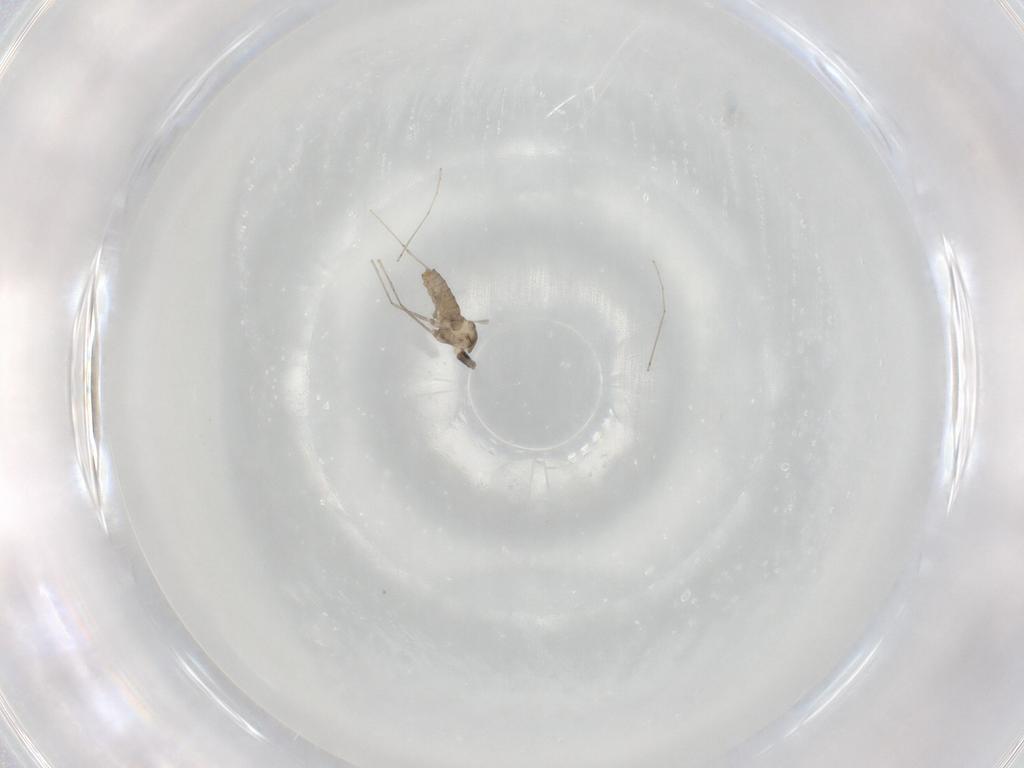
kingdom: Animalia
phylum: Arthropoda
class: Insecta
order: Diptera
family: Cecidomyiidae
